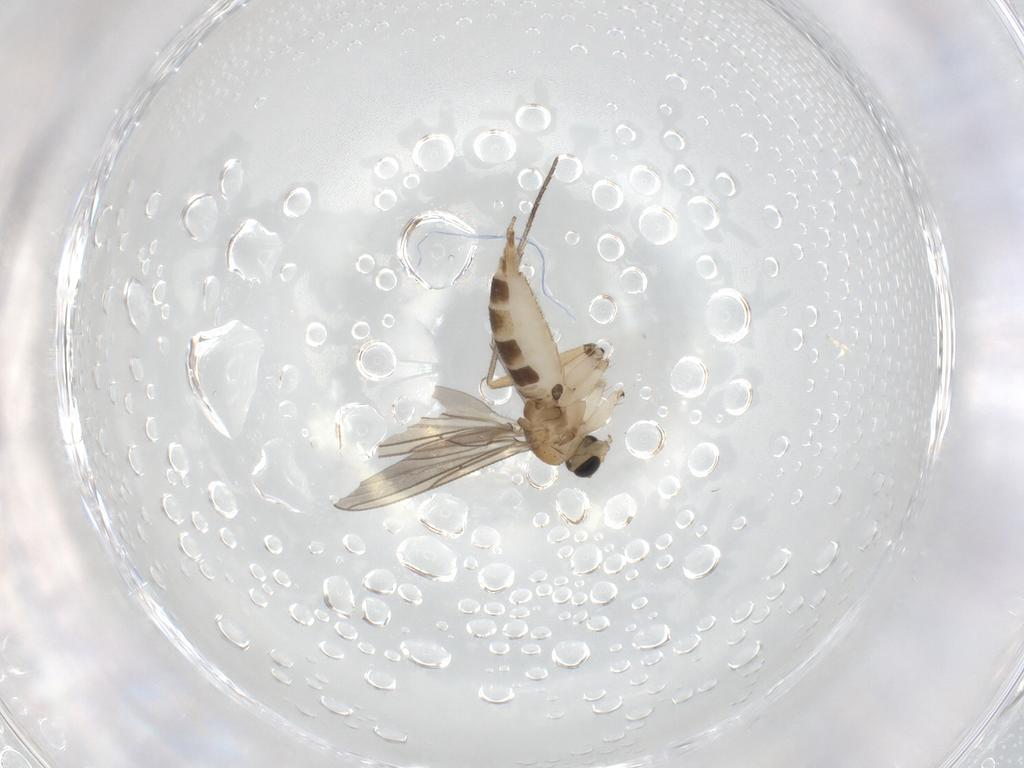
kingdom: Animalia
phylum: Arthropoda
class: Insecta
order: Diptera
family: Sciaridae
